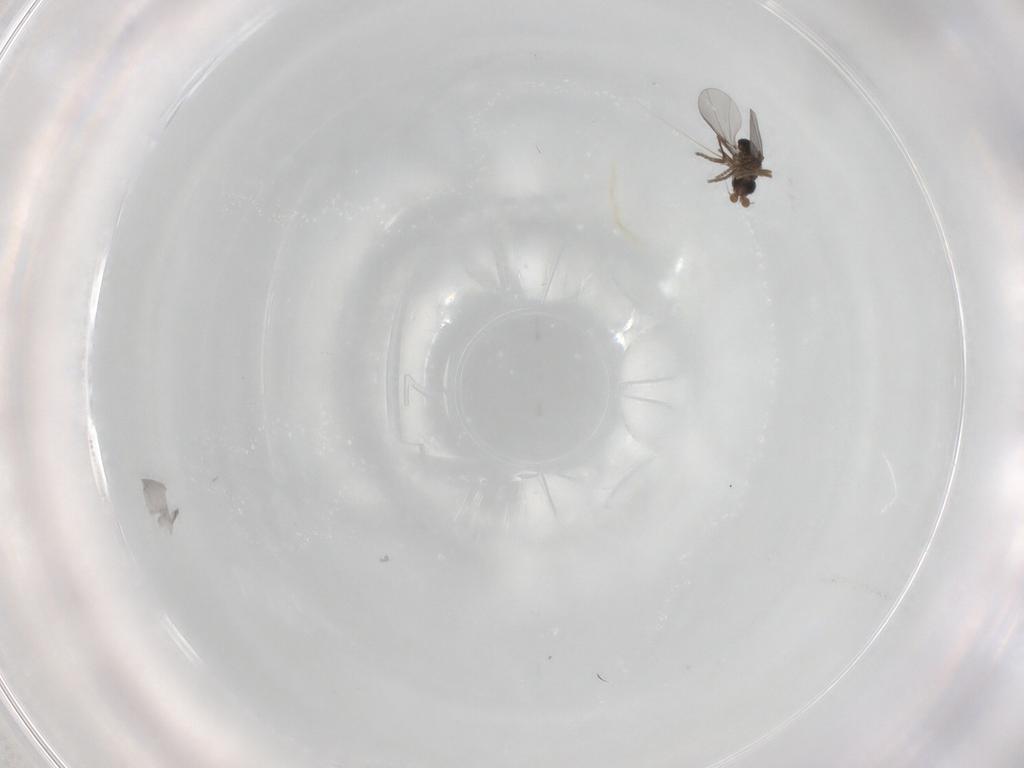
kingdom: Animalia
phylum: Arthropoda
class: Insecta
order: Diptera
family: Phoridae
